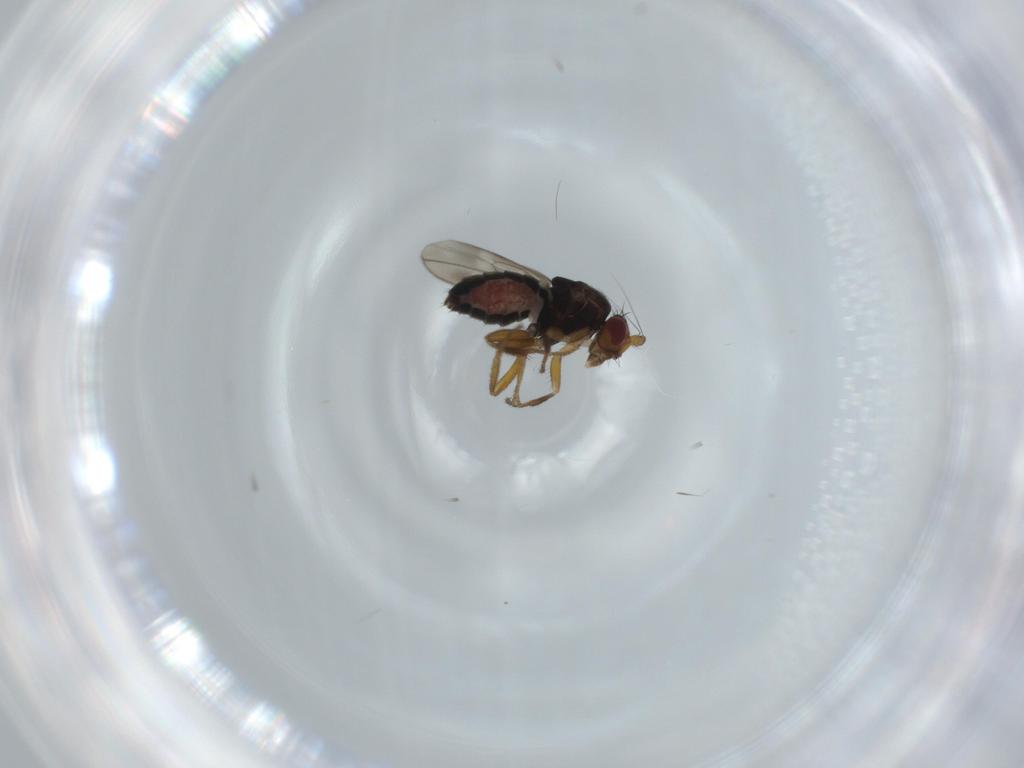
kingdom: Animalia
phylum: Arthropoda
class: Insecta
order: Diptera
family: Sphaeroceridae
